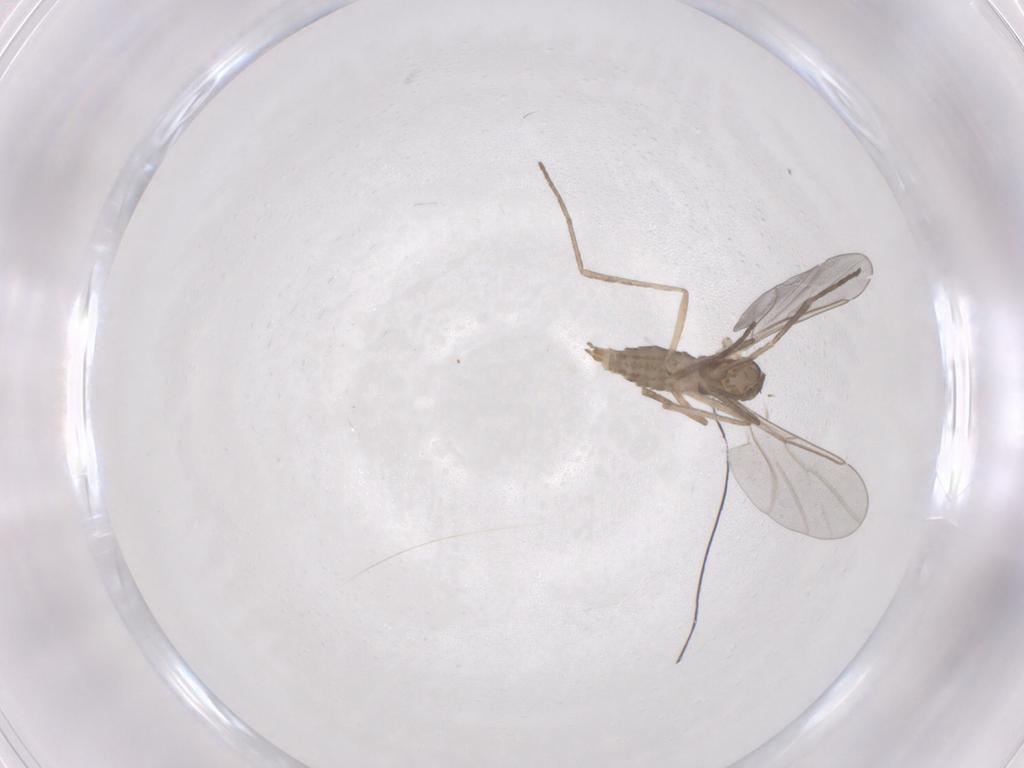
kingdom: Animalia
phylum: Arthropoda
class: Insecta
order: Diptera
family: Cecidomyiidae
